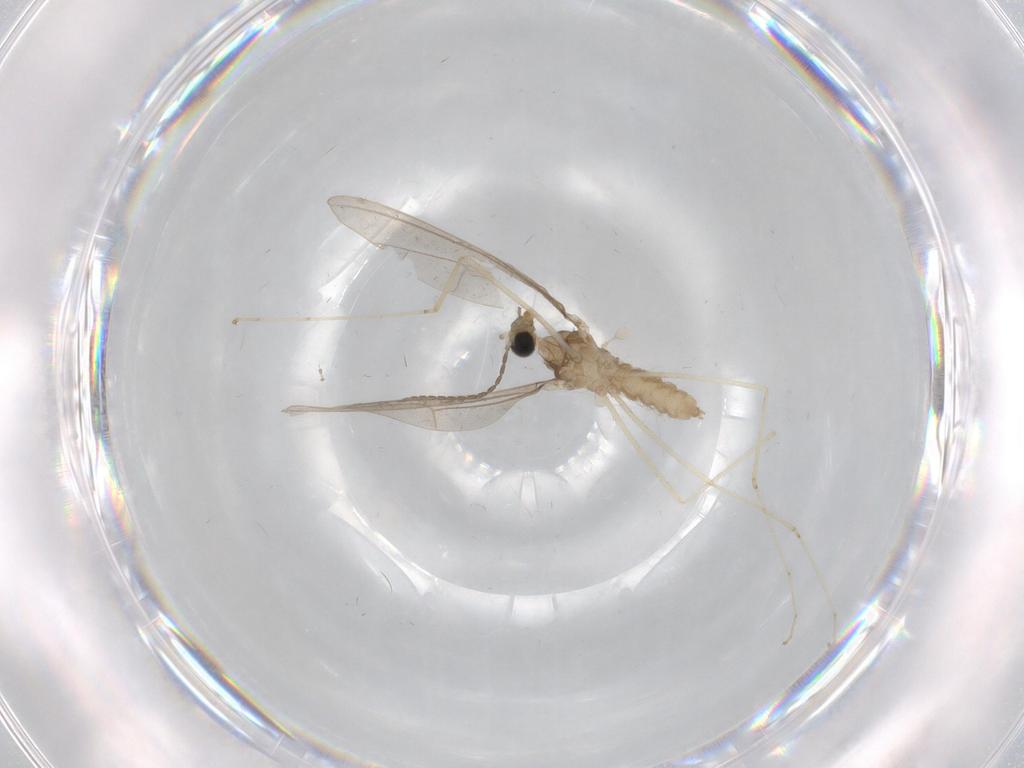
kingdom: Animalia
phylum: Arthropoda
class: Insecta
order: Diptera
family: Cecidomyiidae
